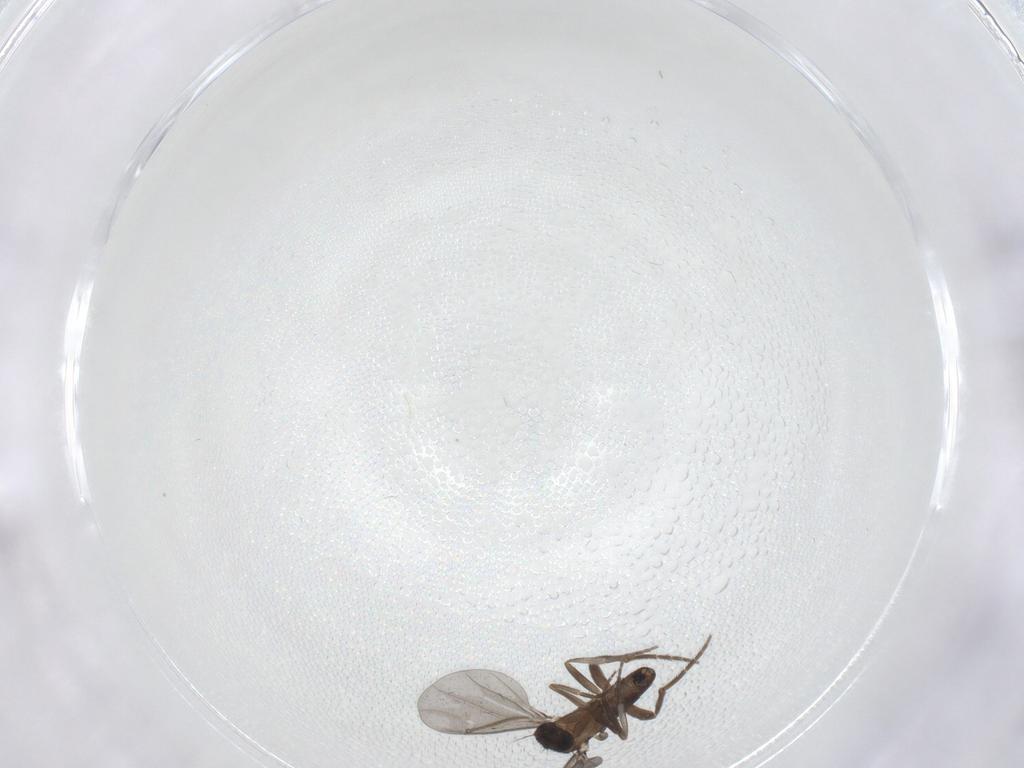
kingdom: Animalia
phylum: Arthropoda
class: Insecta
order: Diptera
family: Phoridae
